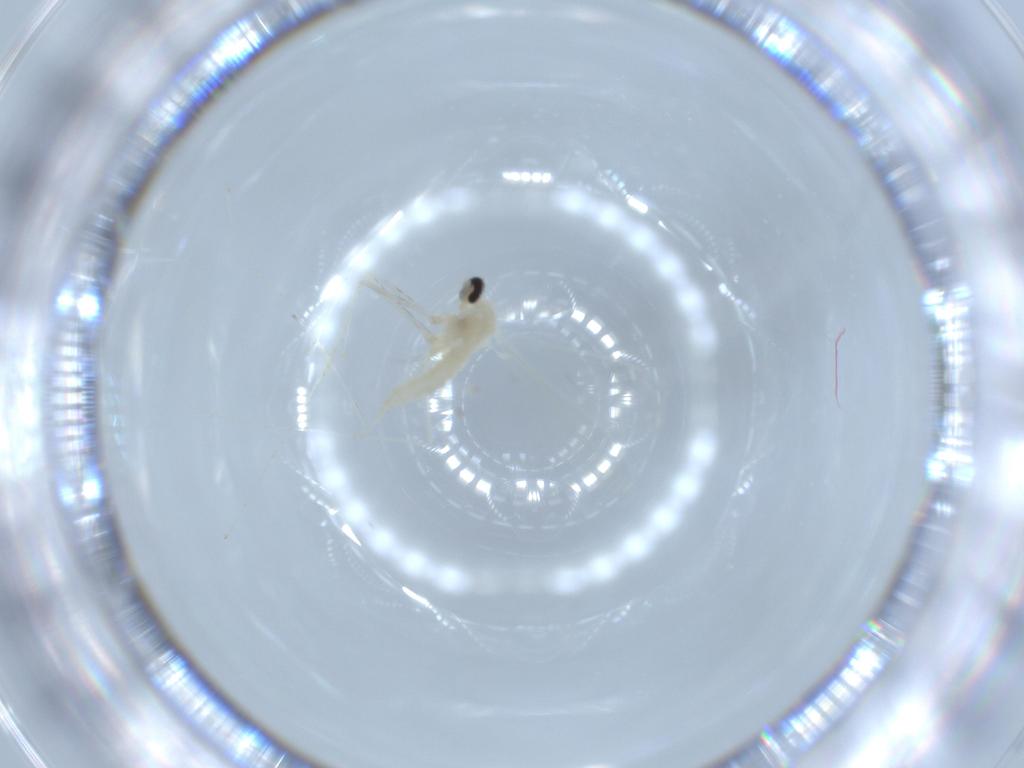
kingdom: Animalia
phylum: Arthropoda
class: Insecta
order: Diptera
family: Cecidomyiidae
